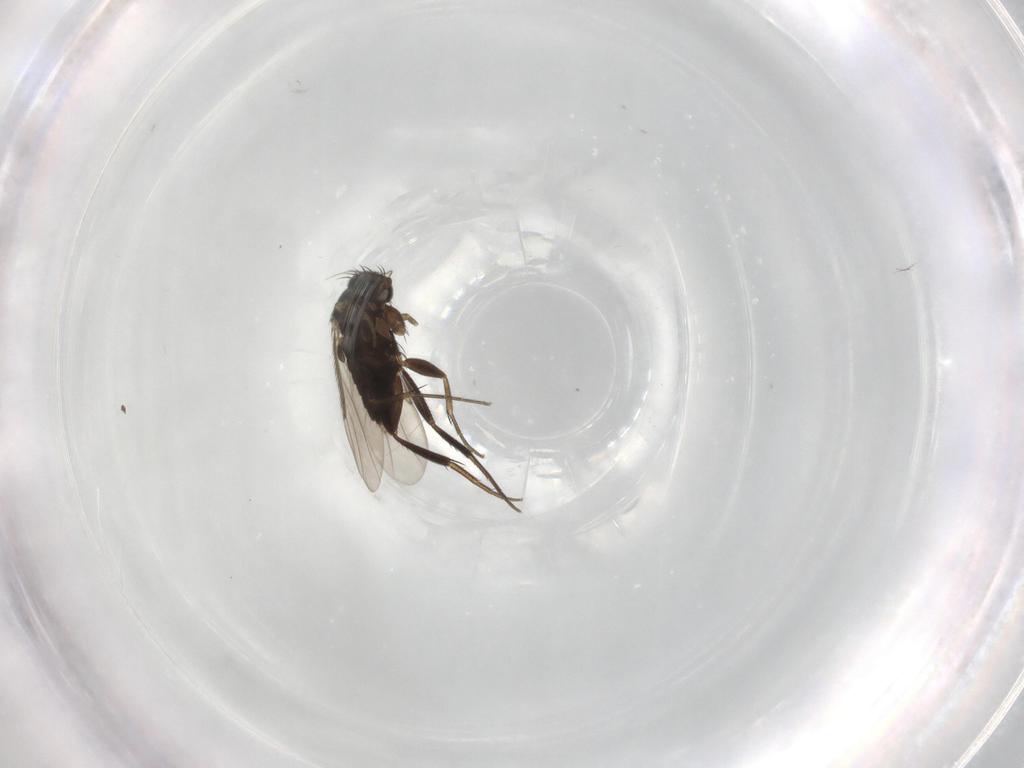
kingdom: Animalia
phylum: Arthropoda
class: Insecta
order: Diptera
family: Phoridae
